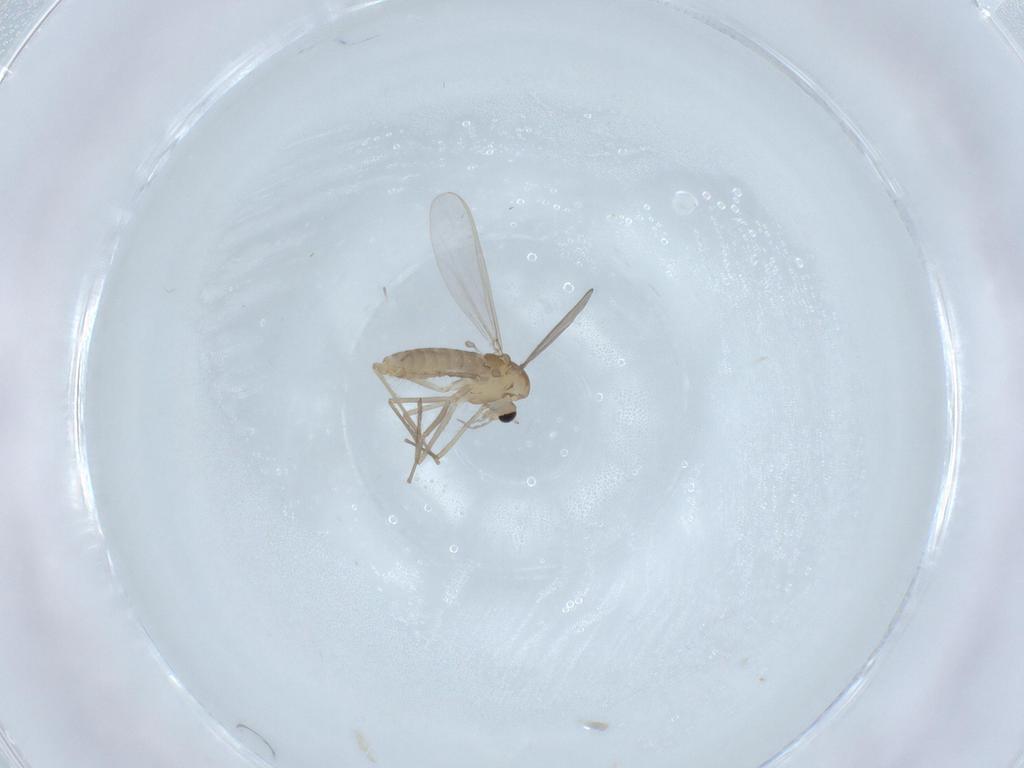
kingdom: Animalia
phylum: Arthropoda
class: Insecta
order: Diptera
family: Chironomidae
